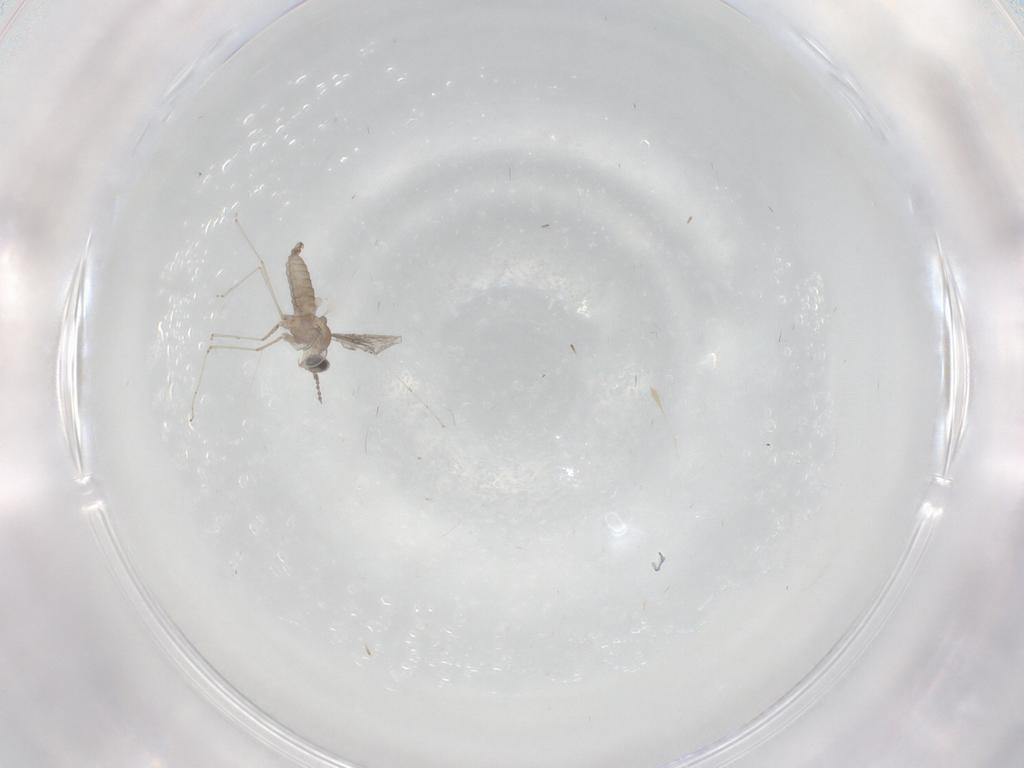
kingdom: Animalia
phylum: Arthropoda
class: Insecta
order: Diptera
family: Cecidomyiidae
